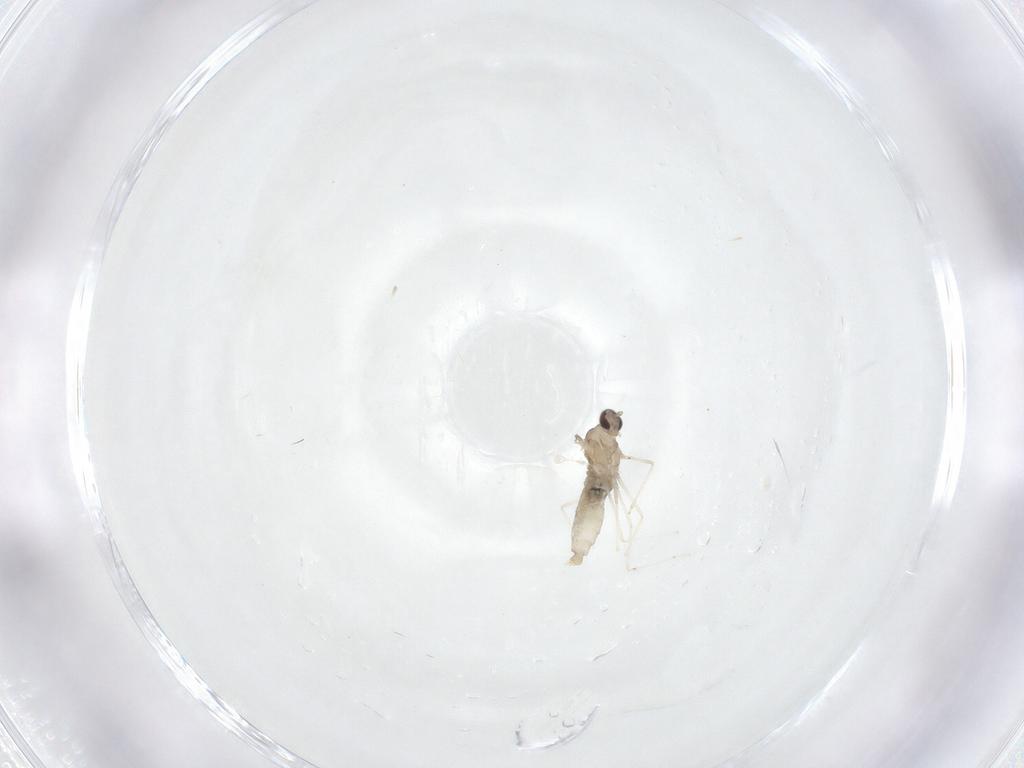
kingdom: Animalia
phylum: Arthropoda
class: Insecta
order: Diptera
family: Cecidomyiidae
